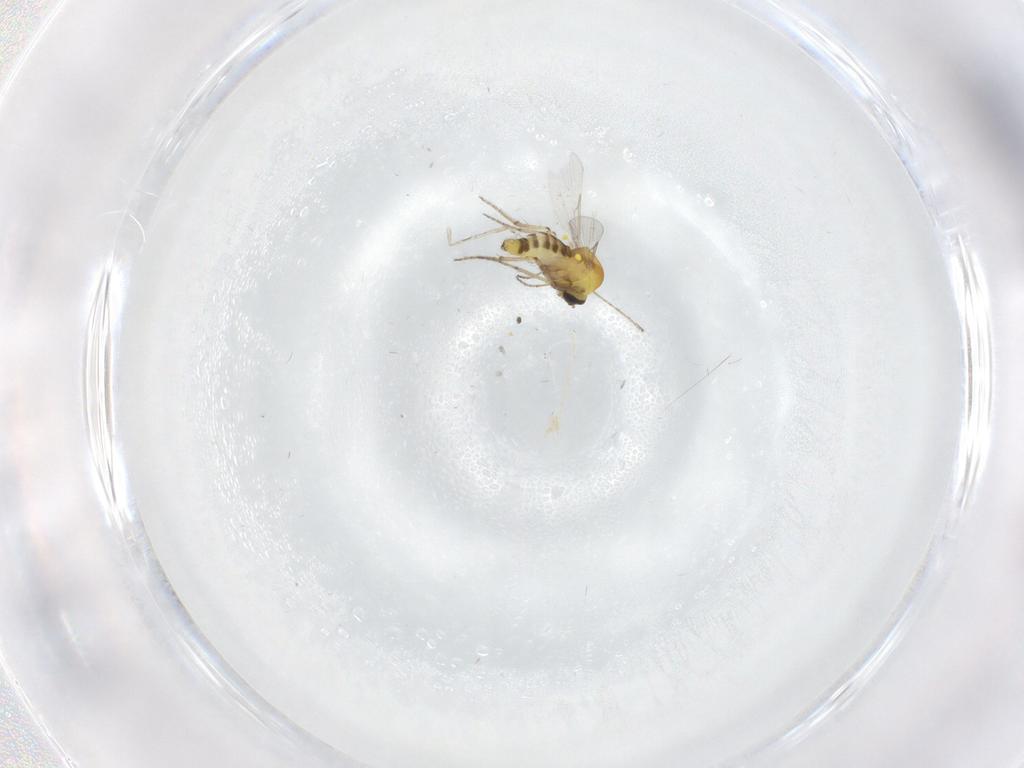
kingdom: Animalia
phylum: Arthropoda
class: Insecta
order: Diptera
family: Limoniidae
